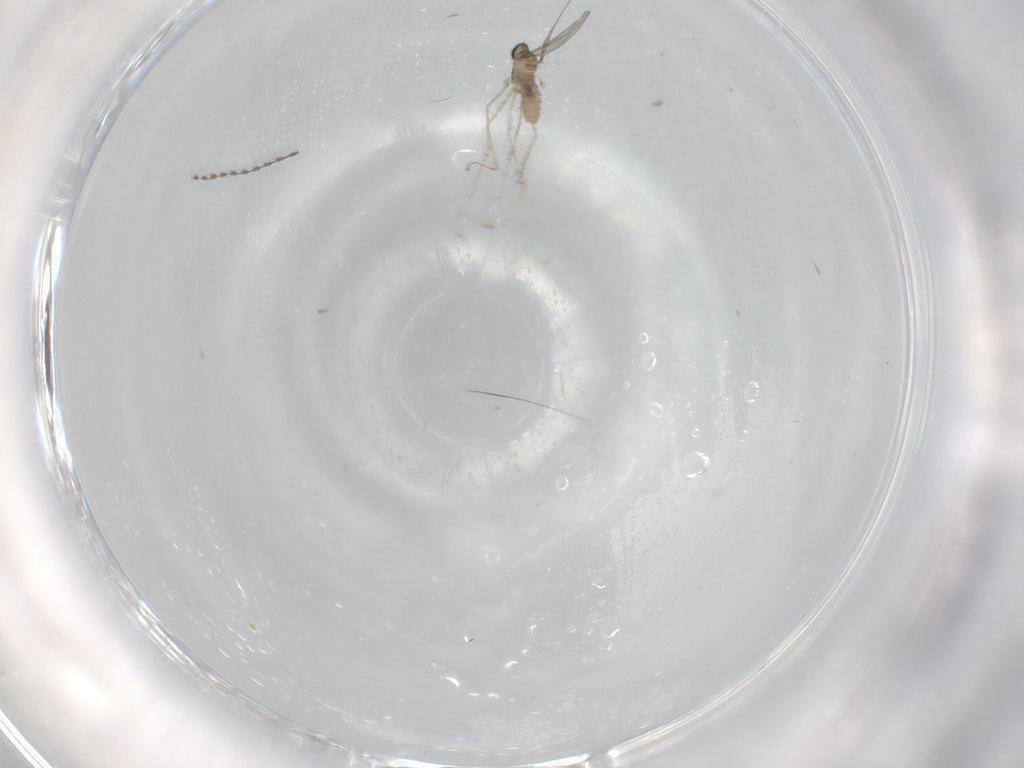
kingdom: Animalia
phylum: Arthropoda
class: Insecta
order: Diptera
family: Cecidomyiidae
